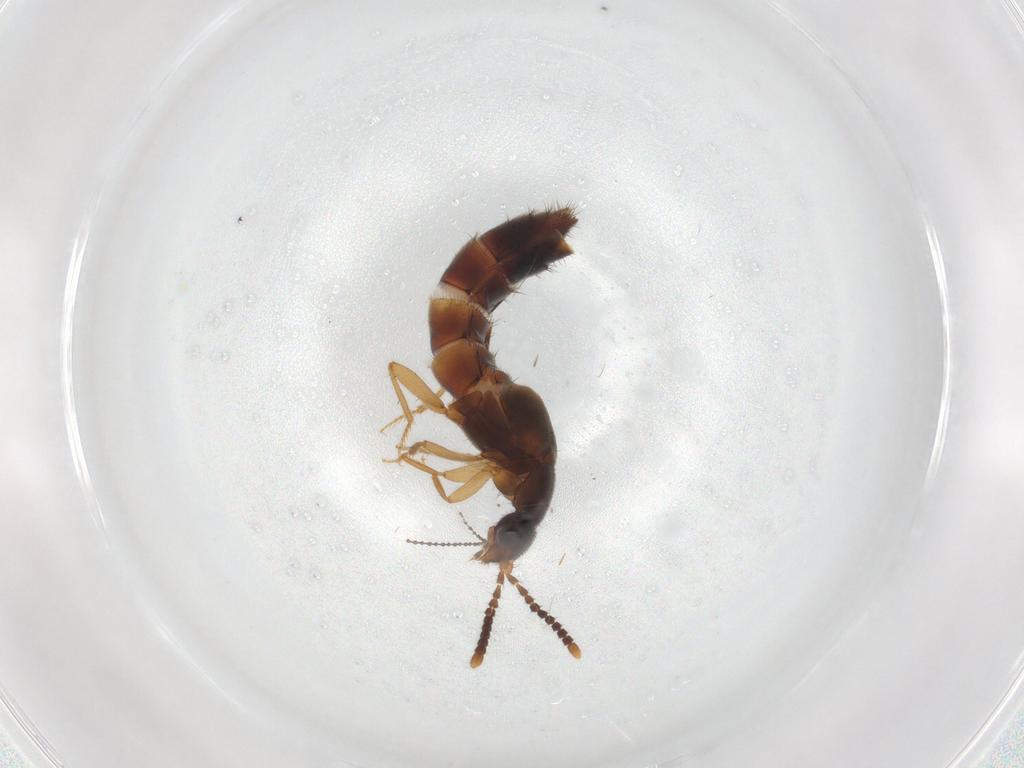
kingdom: Animalia
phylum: Arthropoda
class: Insecta
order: Coleoptera
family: Staphylinidae
